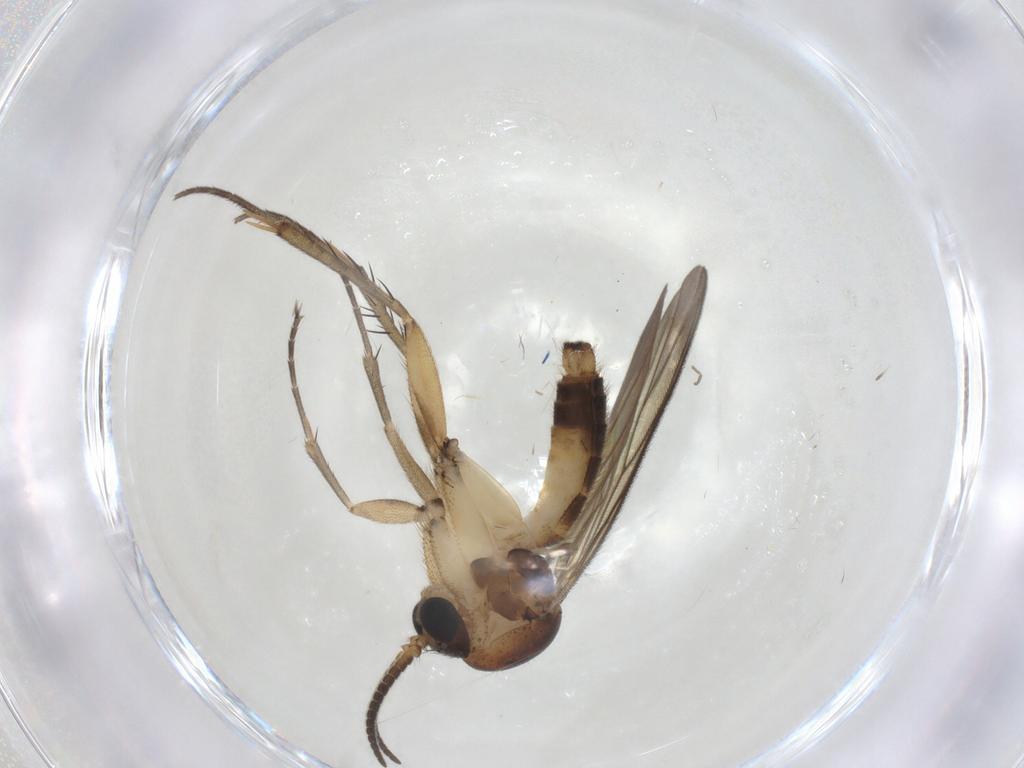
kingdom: Animalia
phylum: Arthropoda
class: Insecta
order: Diptera
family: Mycetophilidae
